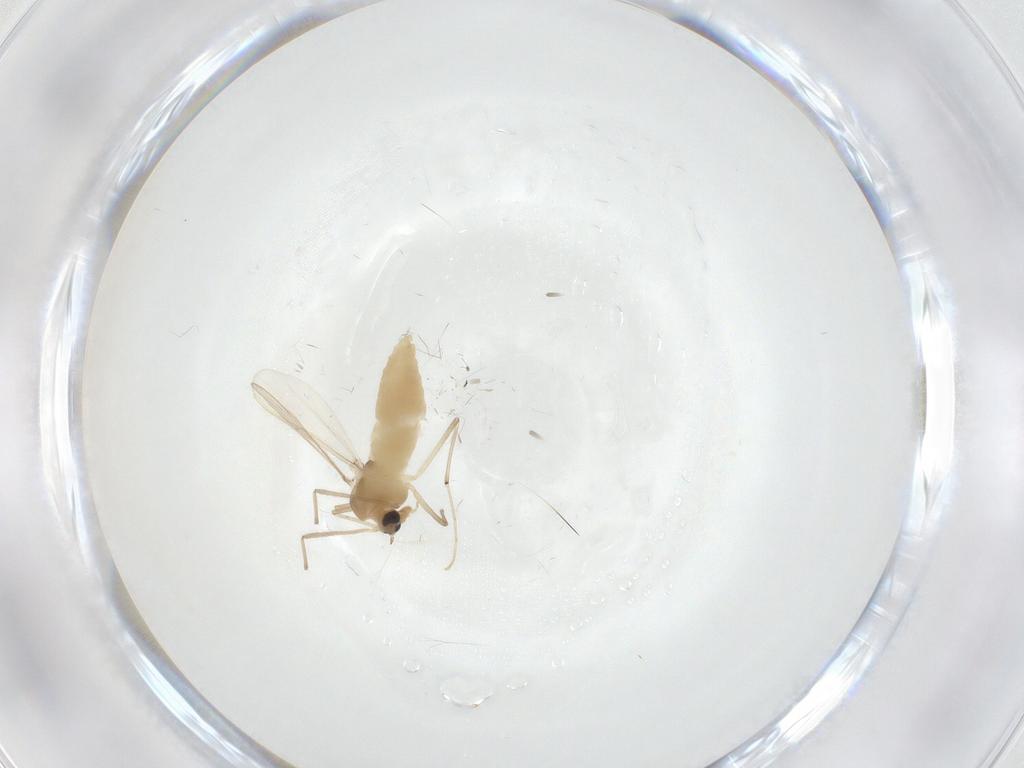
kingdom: Animalia
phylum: Arthropoda
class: Insecta
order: Diptera
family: Chironomidae
